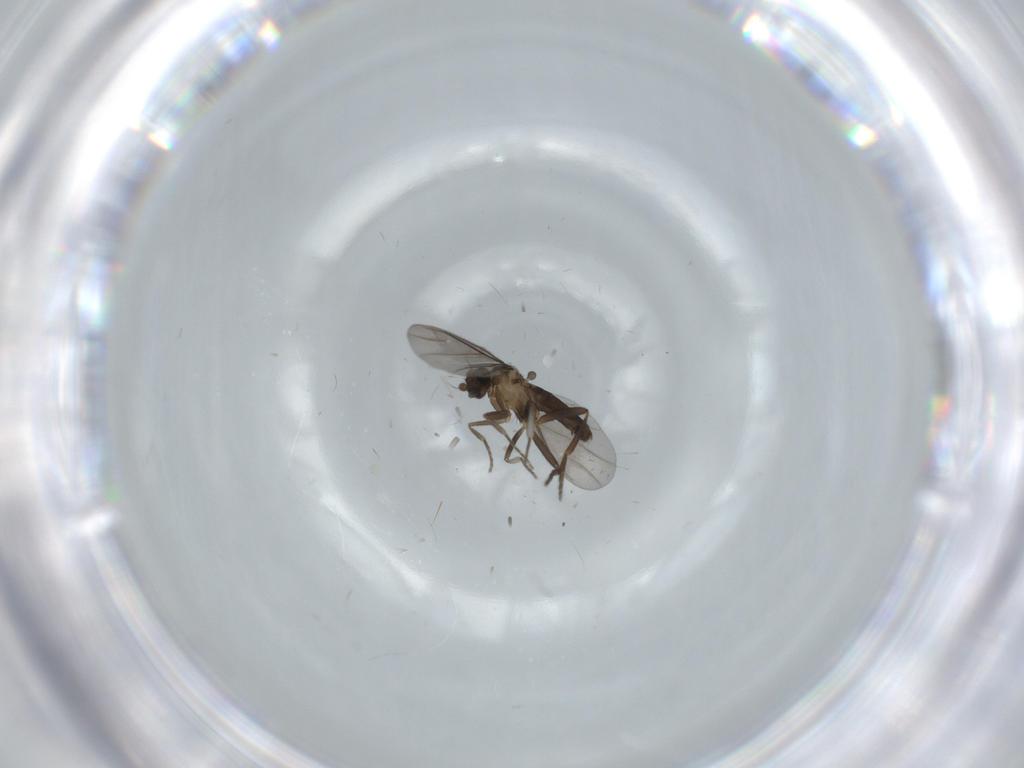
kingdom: Animalia
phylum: Arthropoda
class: Insecta
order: Diptera
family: Tabanidae
